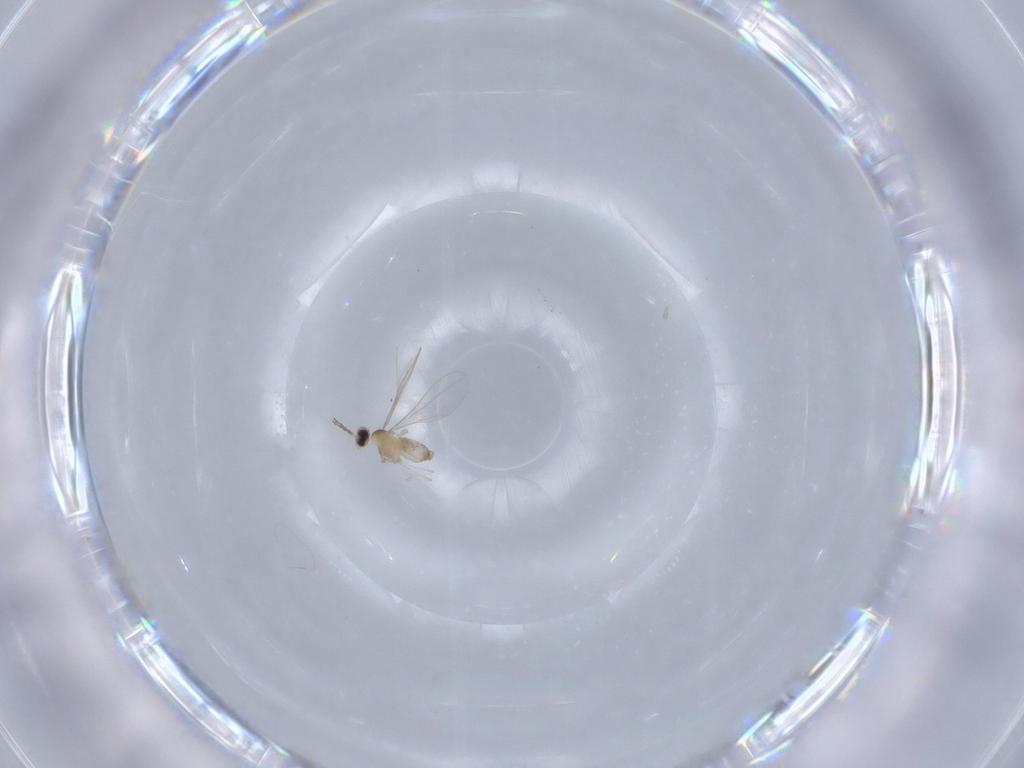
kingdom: Animalia
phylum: Arthropoda
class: Insecta
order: Diptera
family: Cecidomyiidae
